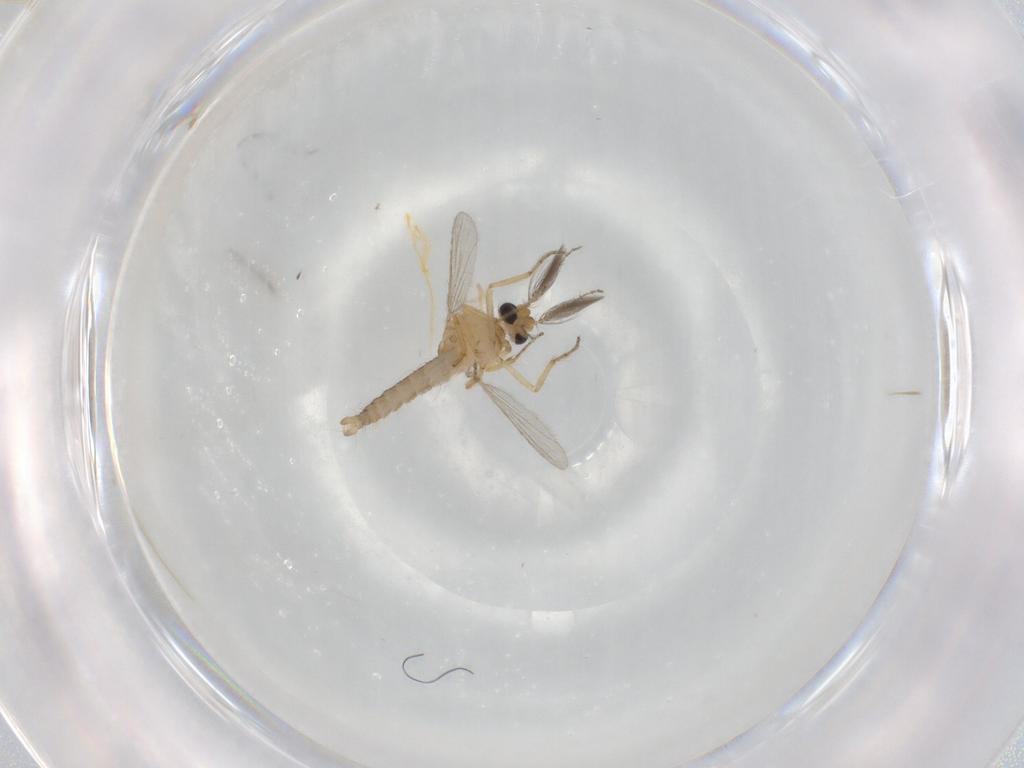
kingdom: Animalia
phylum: Arthropoda
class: Insecta
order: Diptera
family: Ceratopogonidae
